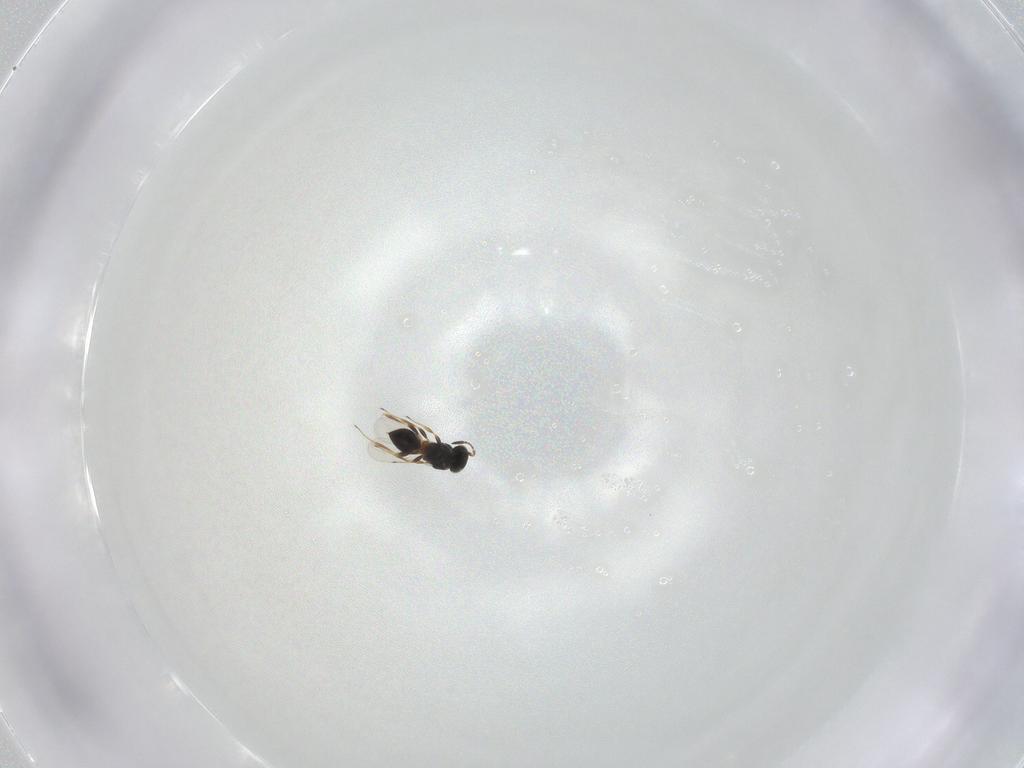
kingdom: Animalia
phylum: Arthropoda
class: Insecta
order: Hymenoptera
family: Platygastridae
